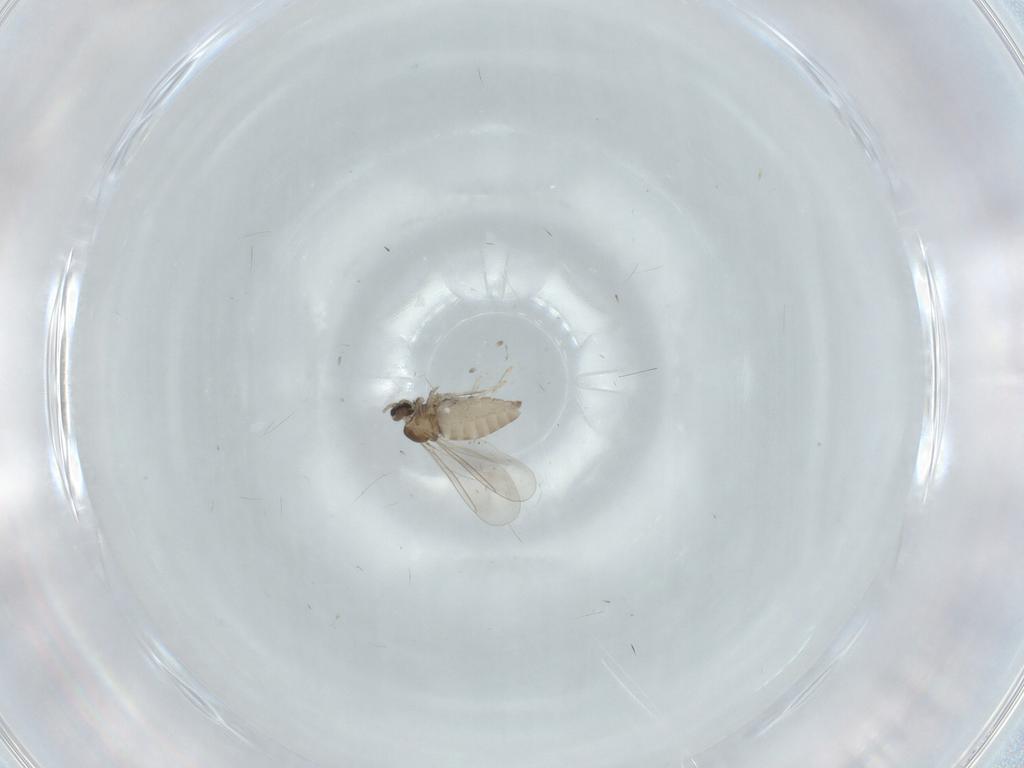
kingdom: Animalia
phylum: Arthropoda
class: Insecta
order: Diptera
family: Cecidomyiidae
